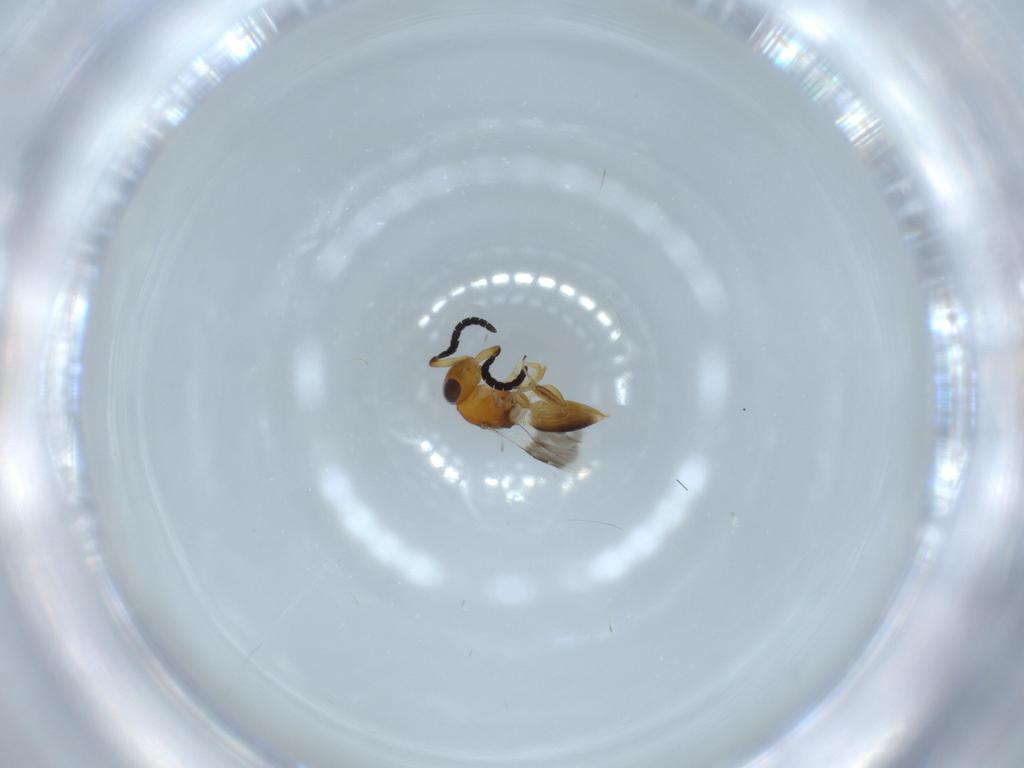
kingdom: Animalia
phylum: Arthropoda
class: Insecta
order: Hymenoptera
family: Megaspilidae
